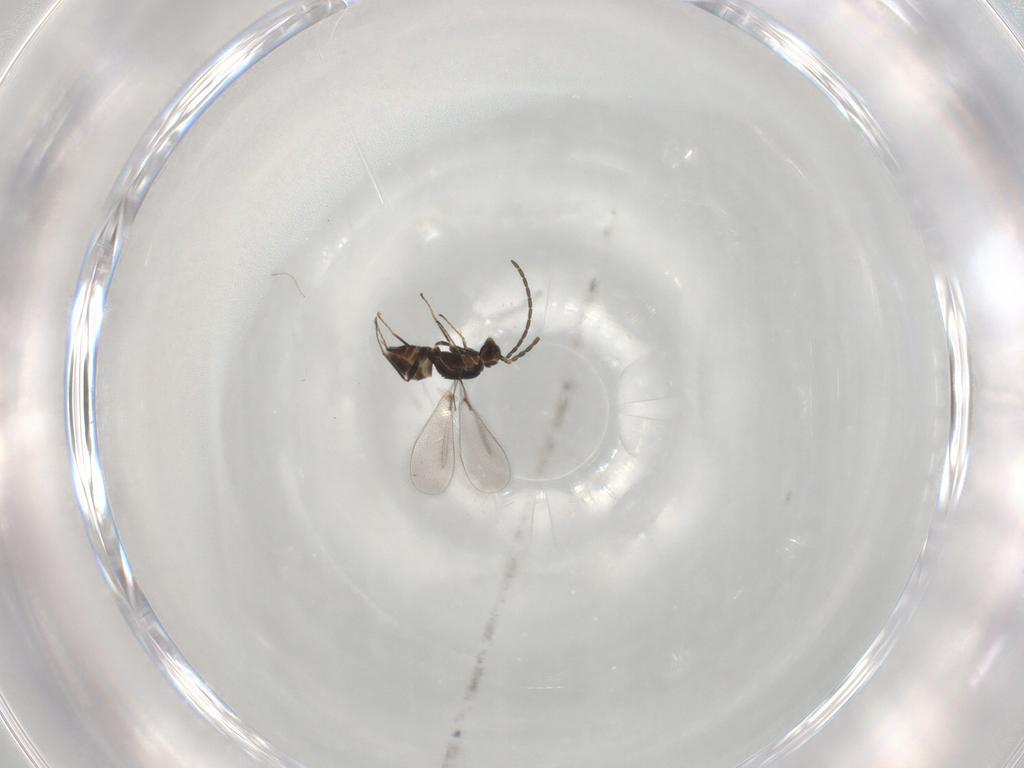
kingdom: Animalia
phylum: Arthropoda
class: Insecta
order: Hymenoptera
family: Mymaridae
